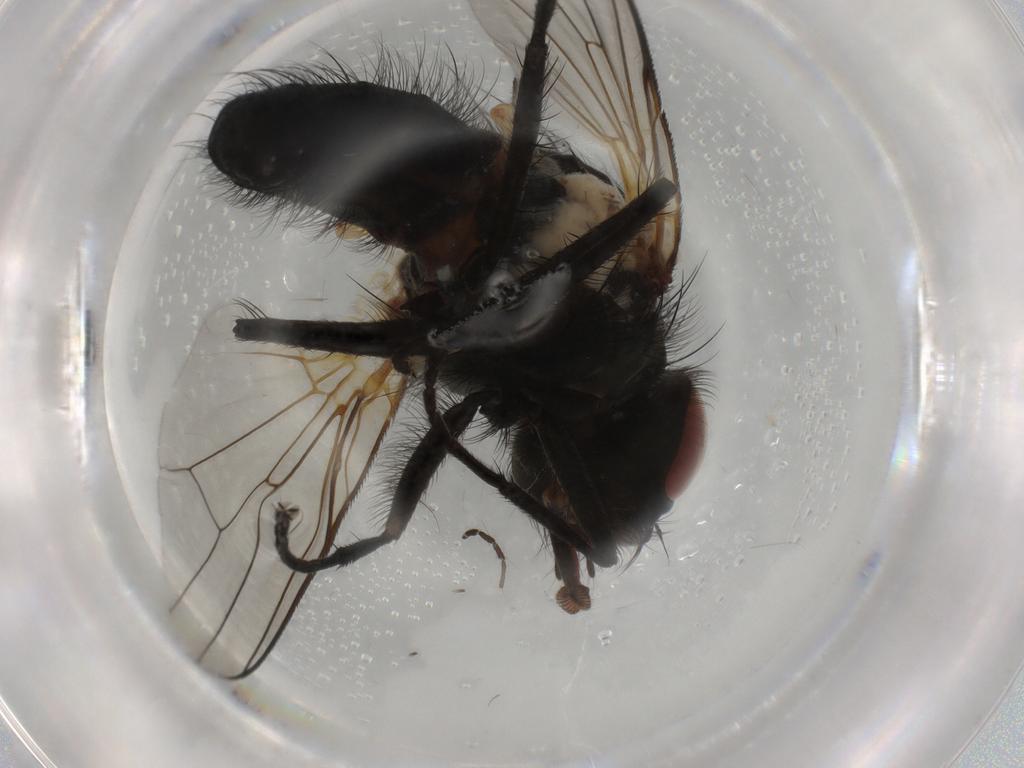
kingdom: Animalia
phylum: Arthropoda
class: Insecta
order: Diptera
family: Anthomyiidae
